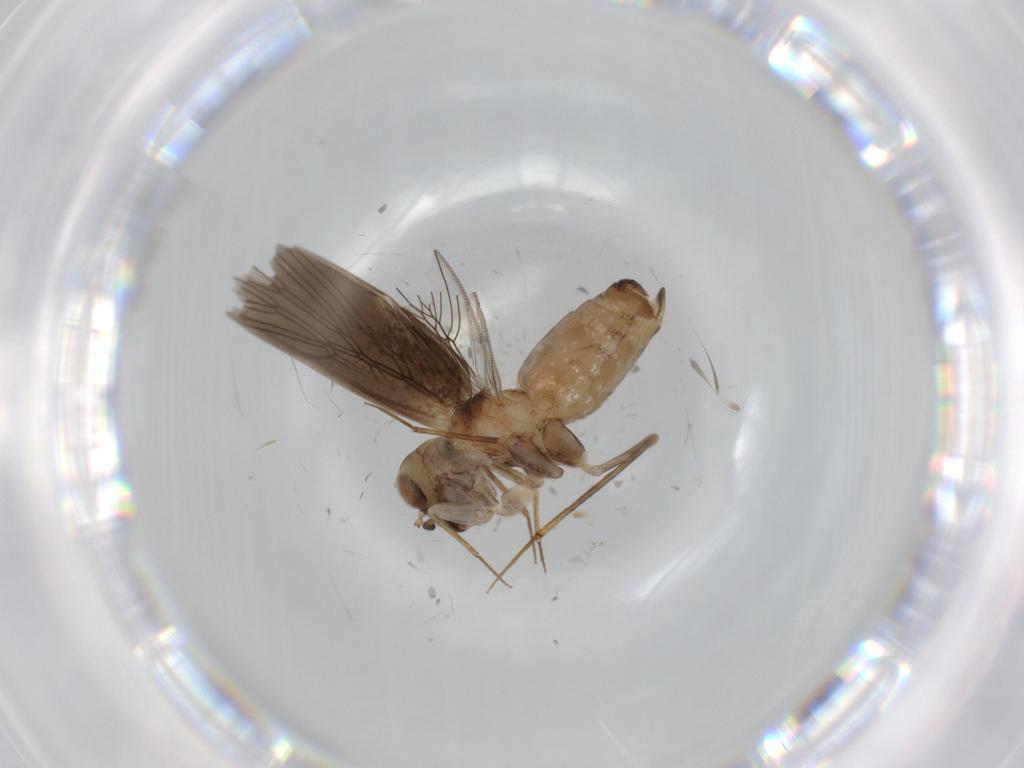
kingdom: Animalia
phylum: Arthropoda
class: Insecta
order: Psocodea
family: Lepidopsocidae
